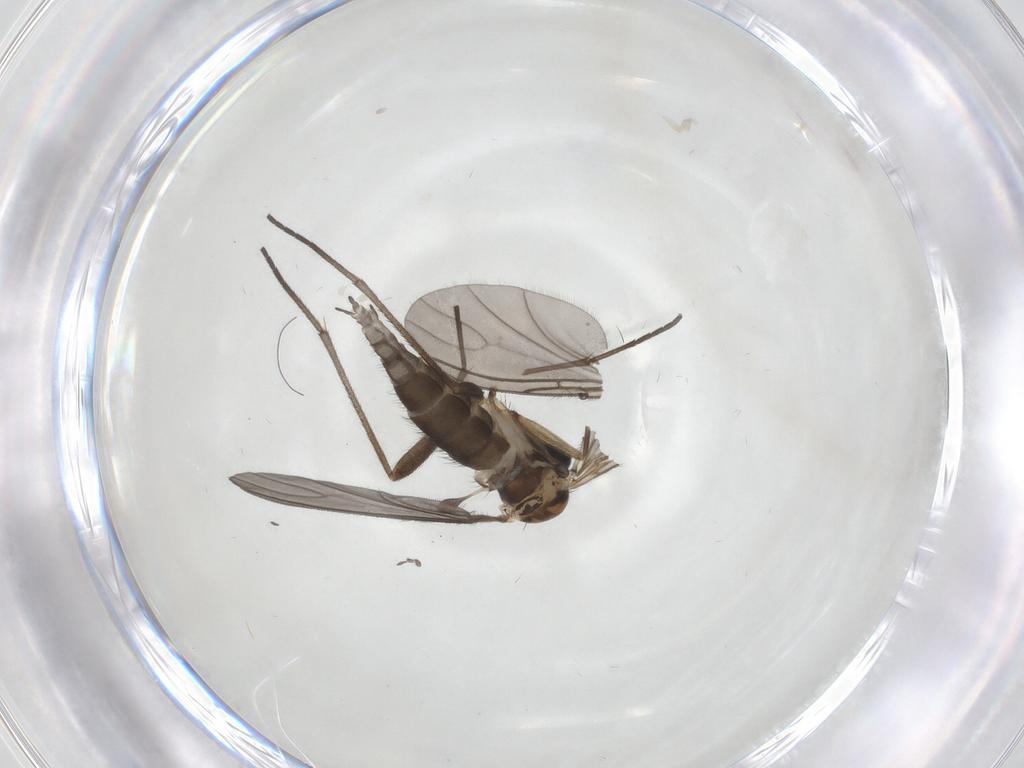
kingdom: Animalia
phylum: Arthropoda
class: Insecta
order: Diptera
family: Sciaridae
